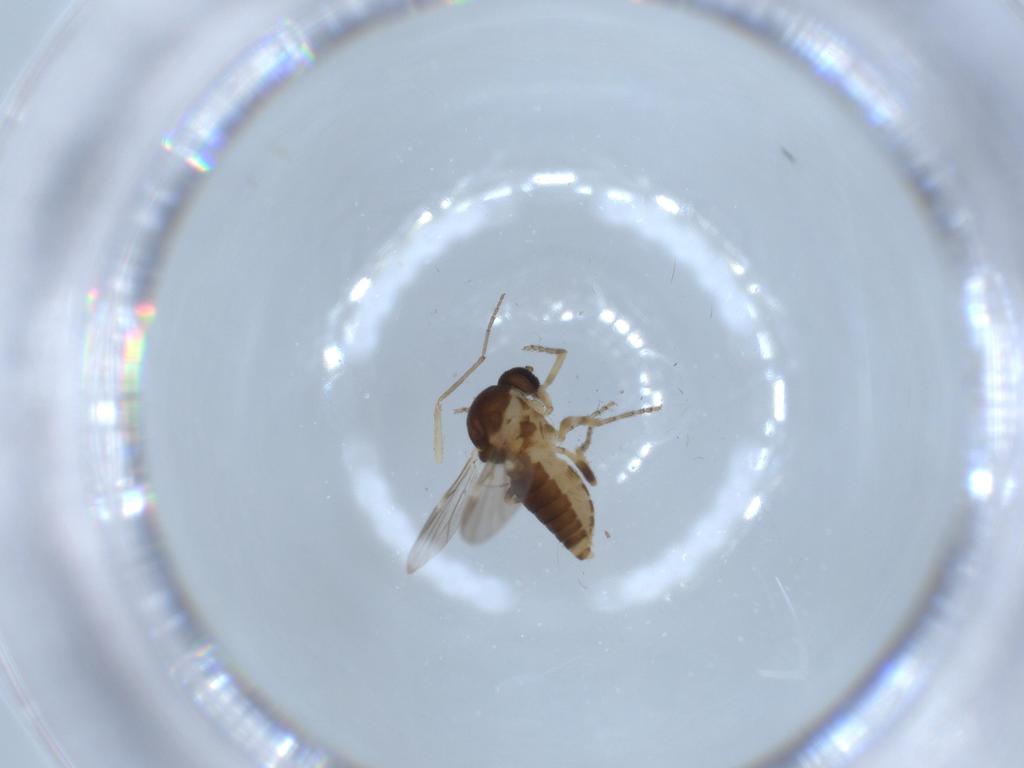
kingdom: Animalia
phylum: Arthropoda
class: Insecta
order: Diptera
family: Ceratopogonidae
